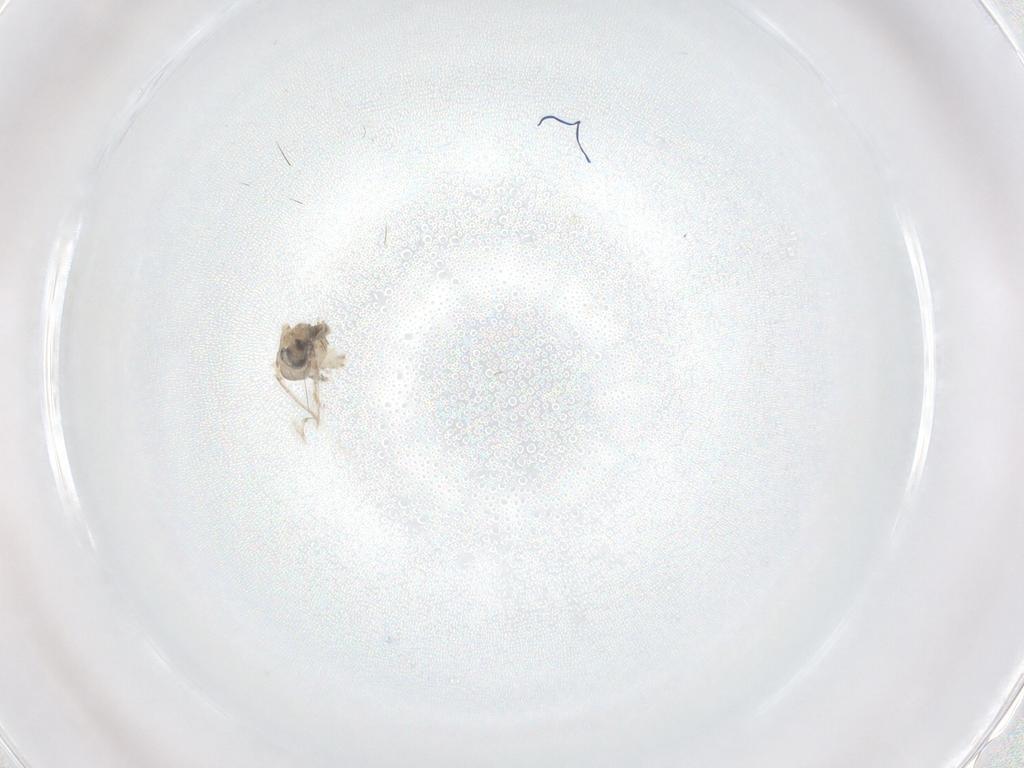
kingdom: Animalia
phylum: Arthropoda
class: Insecta
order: Diptera
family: Cecidomyiidae
